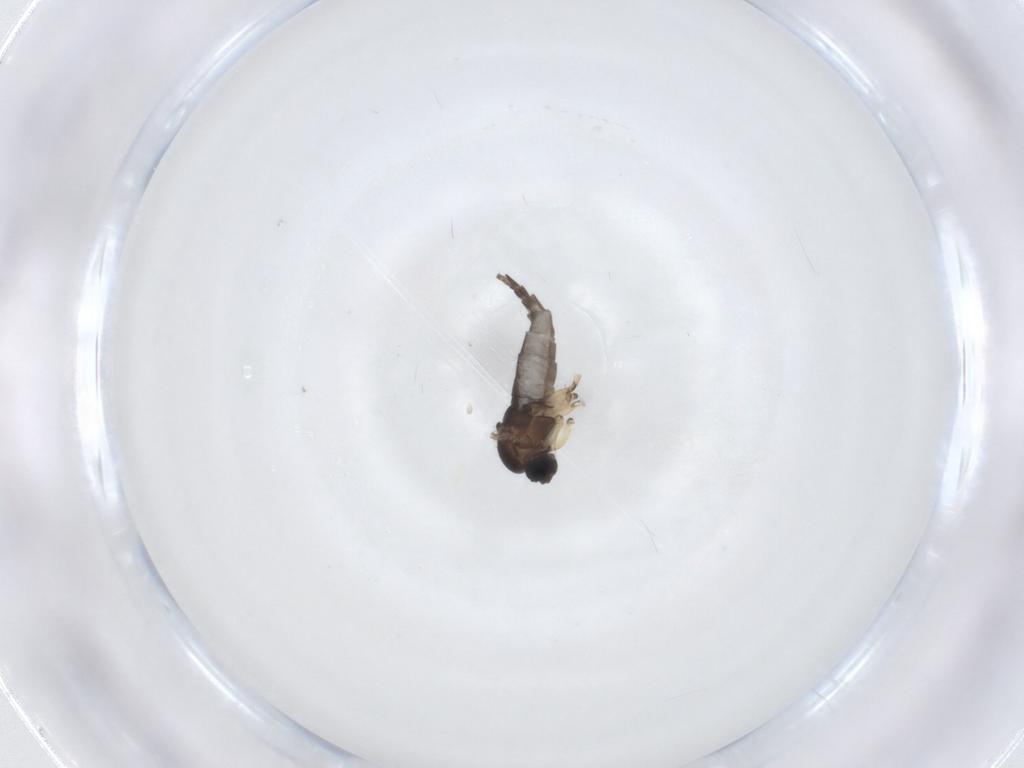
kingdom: Animalia
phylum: Arthropoda
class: Insecta
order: Diptera
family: Sciaridae
